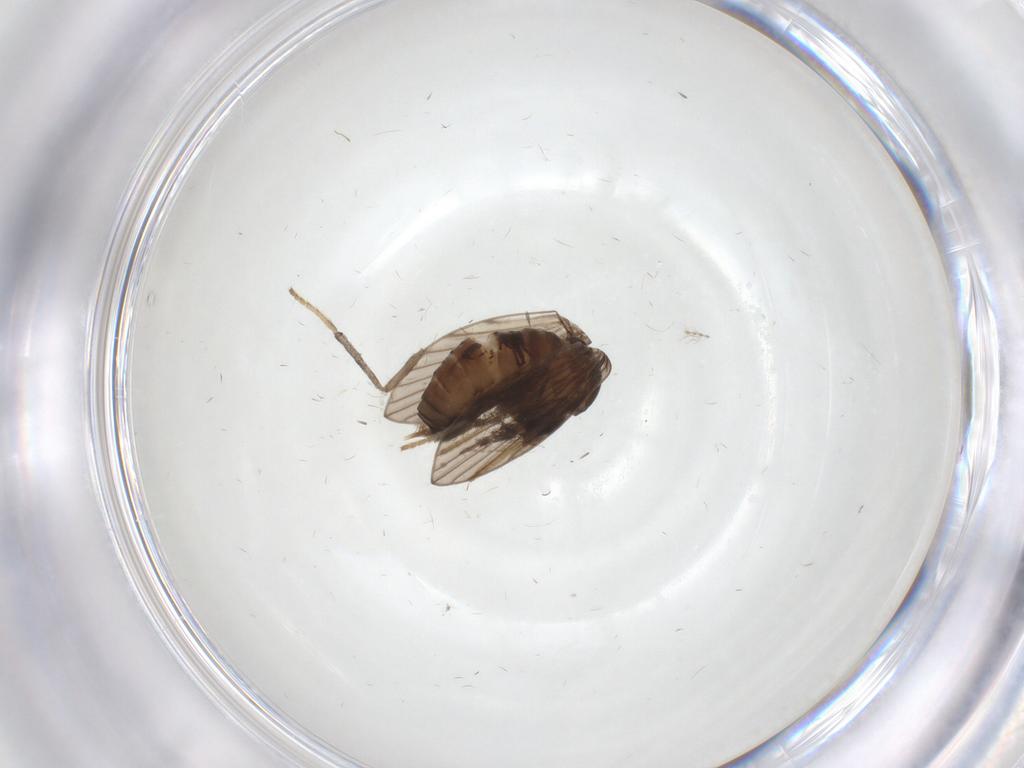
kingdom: Animalia
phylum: Arthropoda
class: Insecta
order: Diptera
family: Psychodidae
